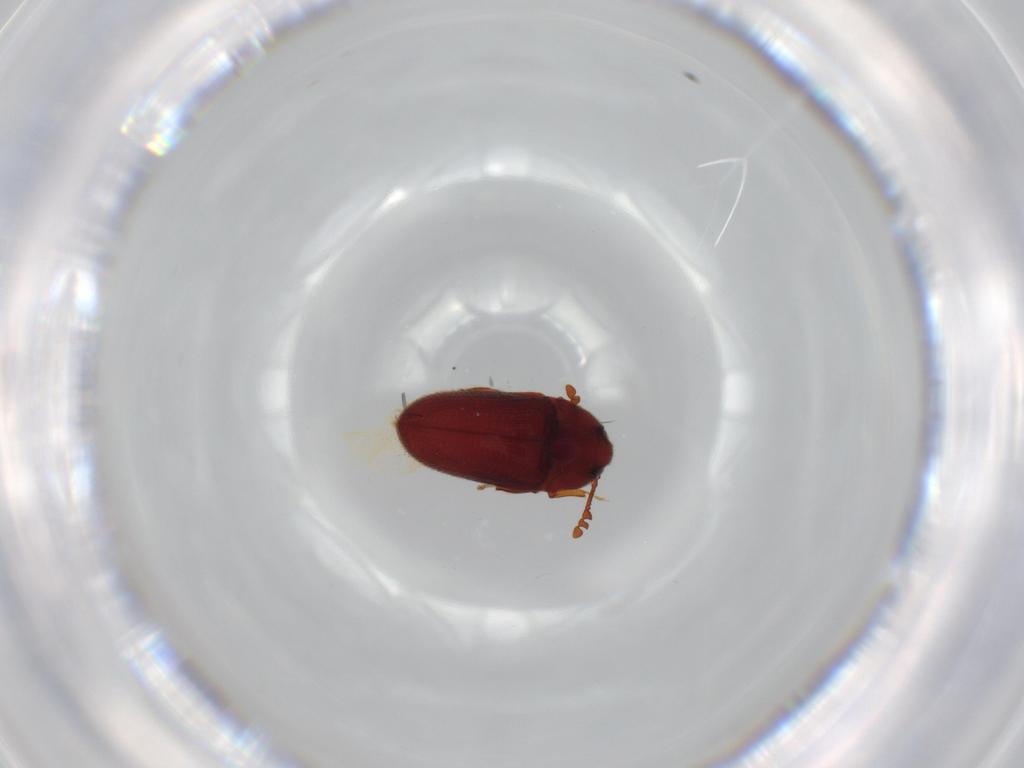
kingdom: Animalia
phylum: Arthropoda
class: Insecta
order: Coleoptera
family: Throscidae
